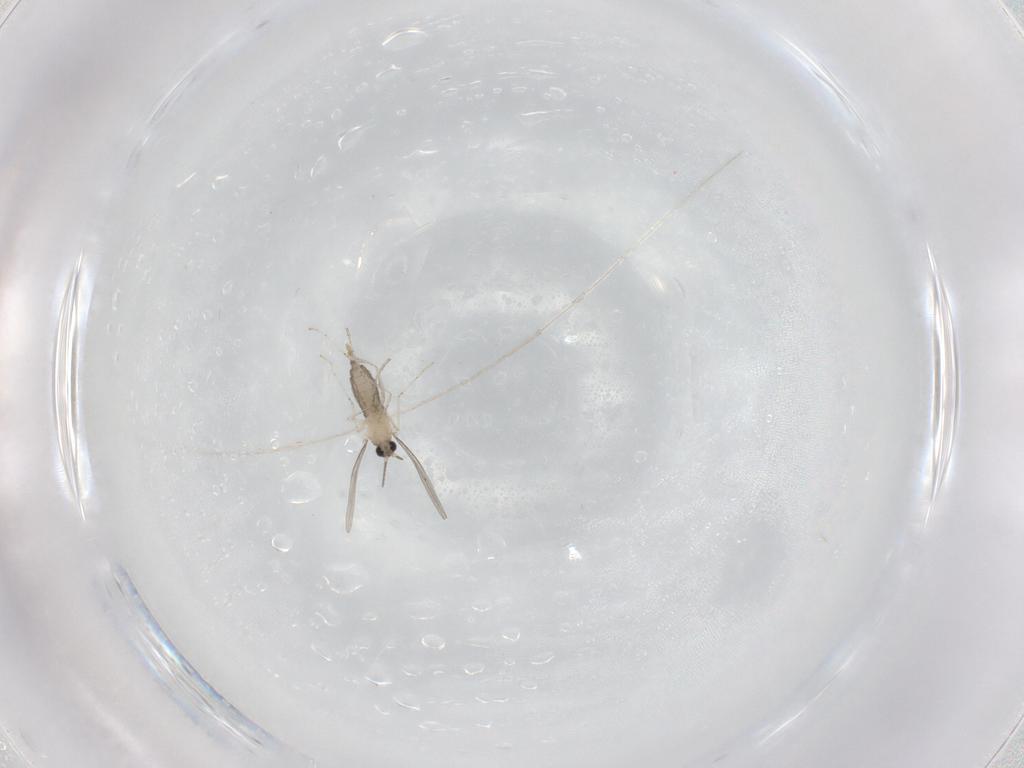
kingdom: Animalia
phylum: Arthropoda
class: Insecta
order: Diptera
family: Cecidomyiidae
